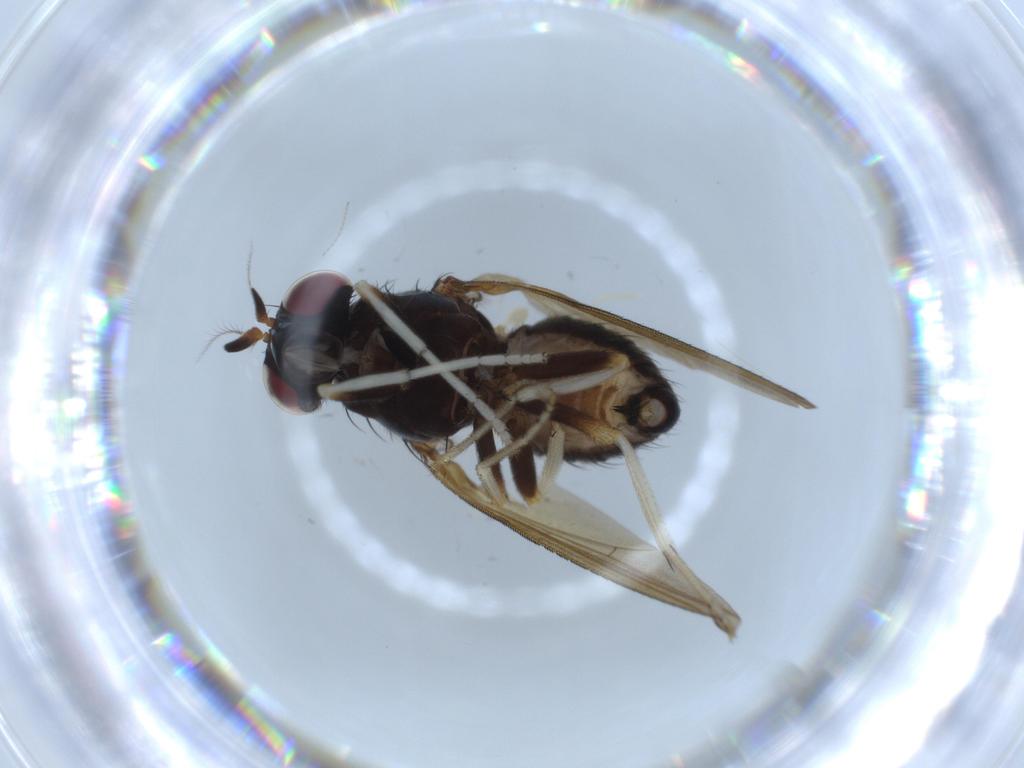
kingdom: Animalia
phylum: Arthropoda
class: Insecta
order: Diptera
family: Lauxaniidae
